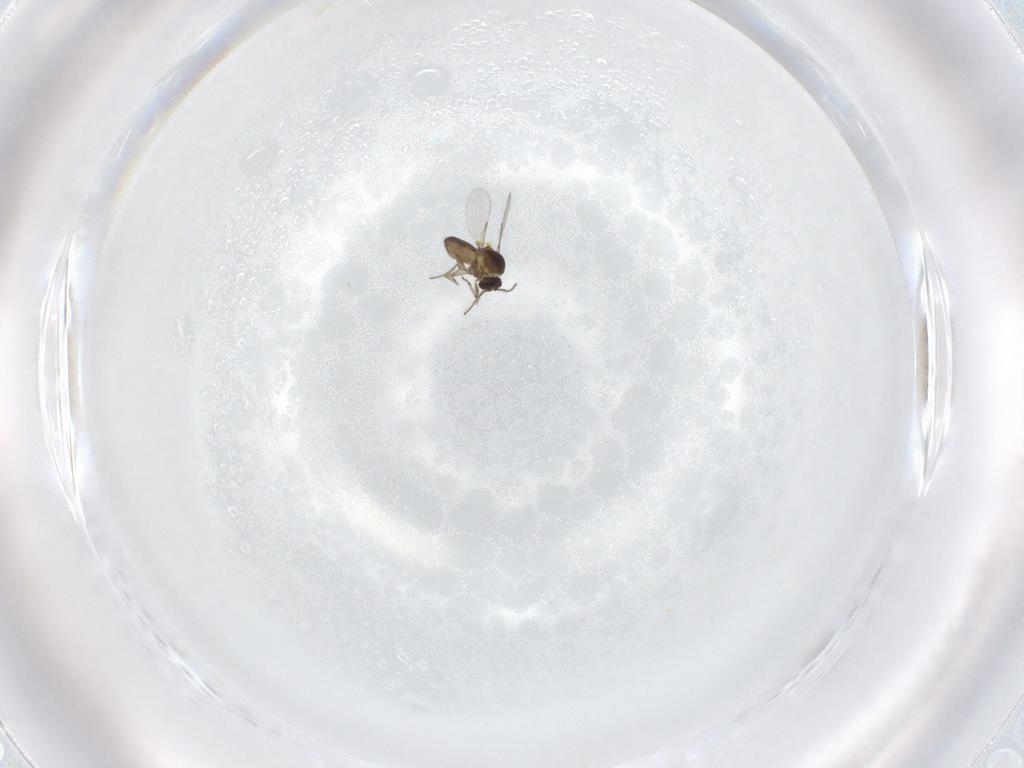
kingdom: Animalia
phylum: Arthropoda
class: Insecta
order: Diptera
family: Ceratopogonidae
